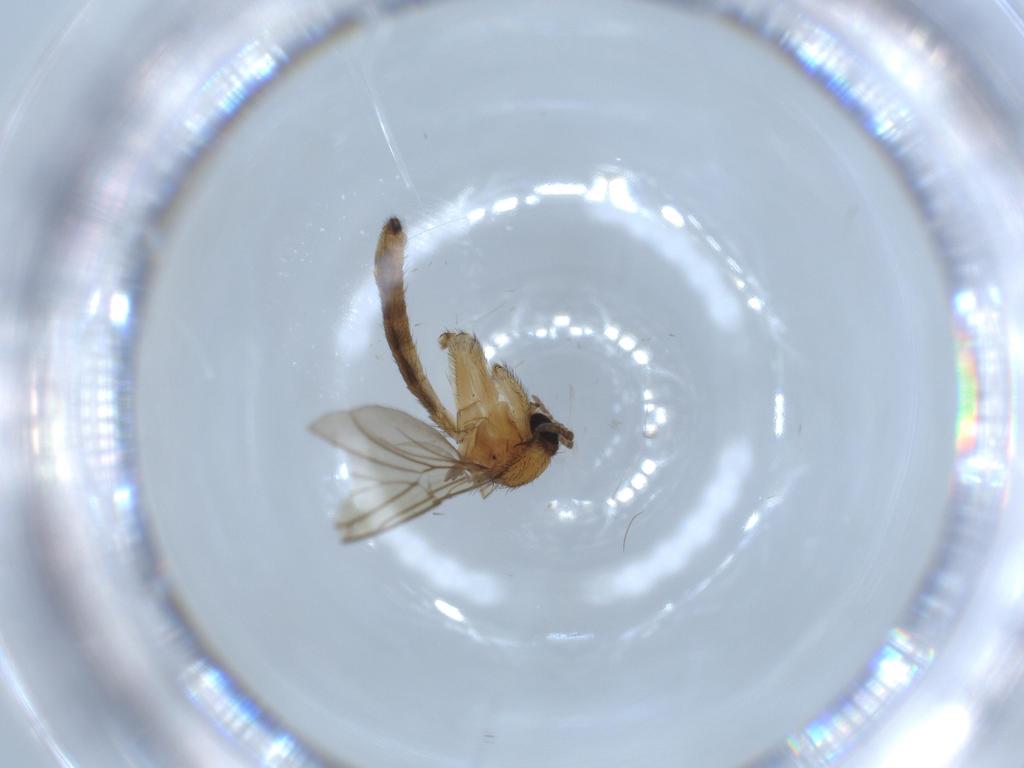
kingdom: Animalia
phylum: Arthropoda
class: Insecta
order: Diptera
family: Keroplatidae
